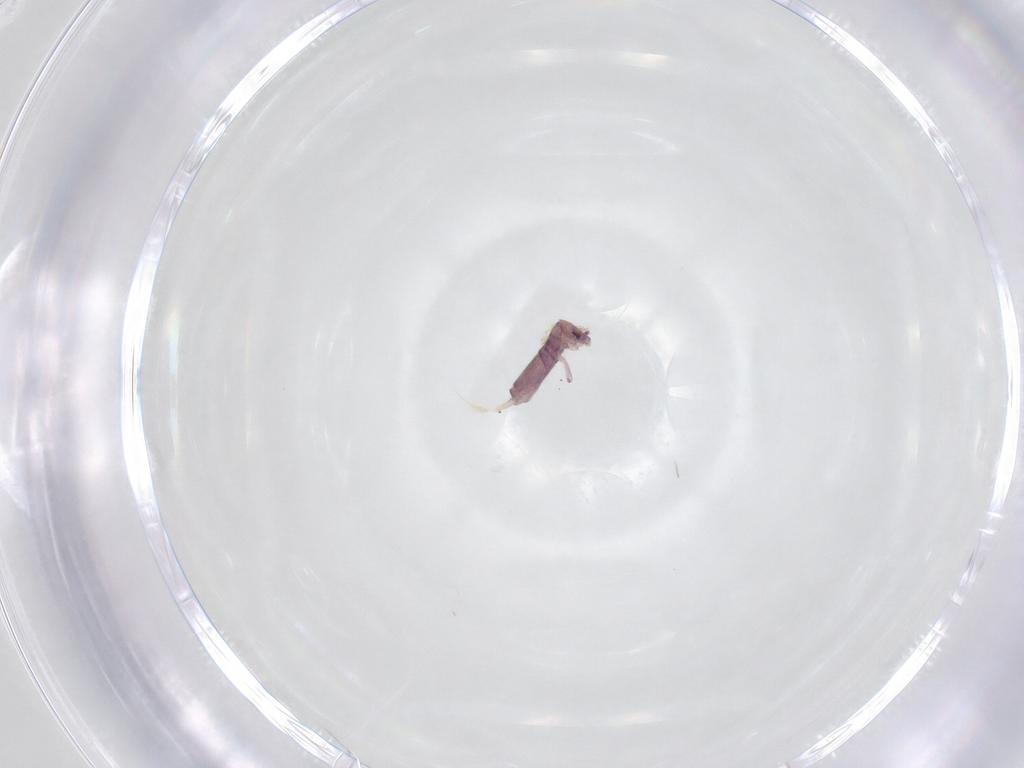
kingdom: Animalia
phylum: Arthropoda
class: Collembola
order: Entomobryomorpha
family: Entomobryidae
